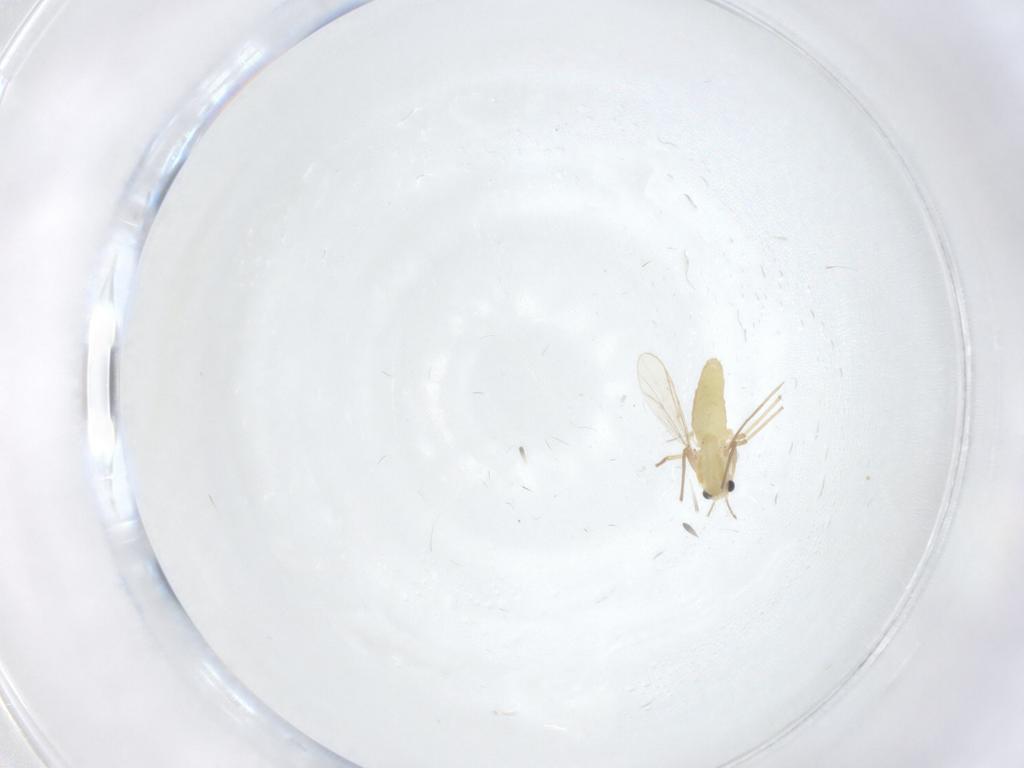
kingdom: Animalia
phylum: Arthropoda
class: Insecta
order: Diptera
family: Chironomidae
